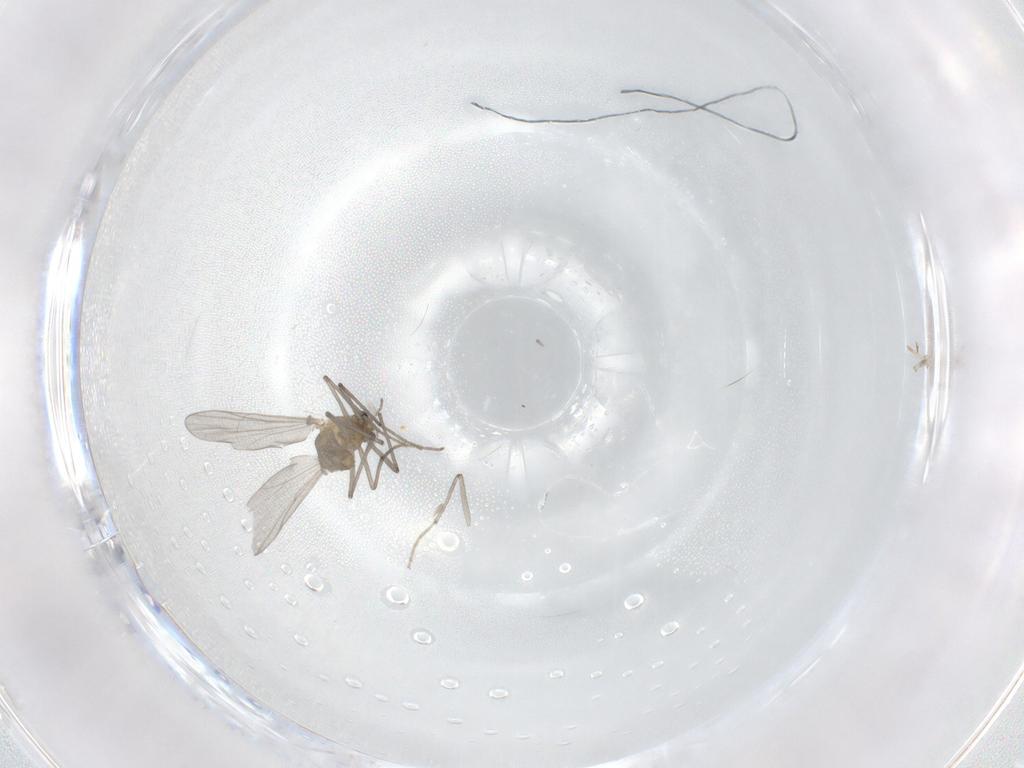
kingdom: Animalia
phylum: Arthropoda
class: Insecta
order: Diptera
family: Chironomidae
